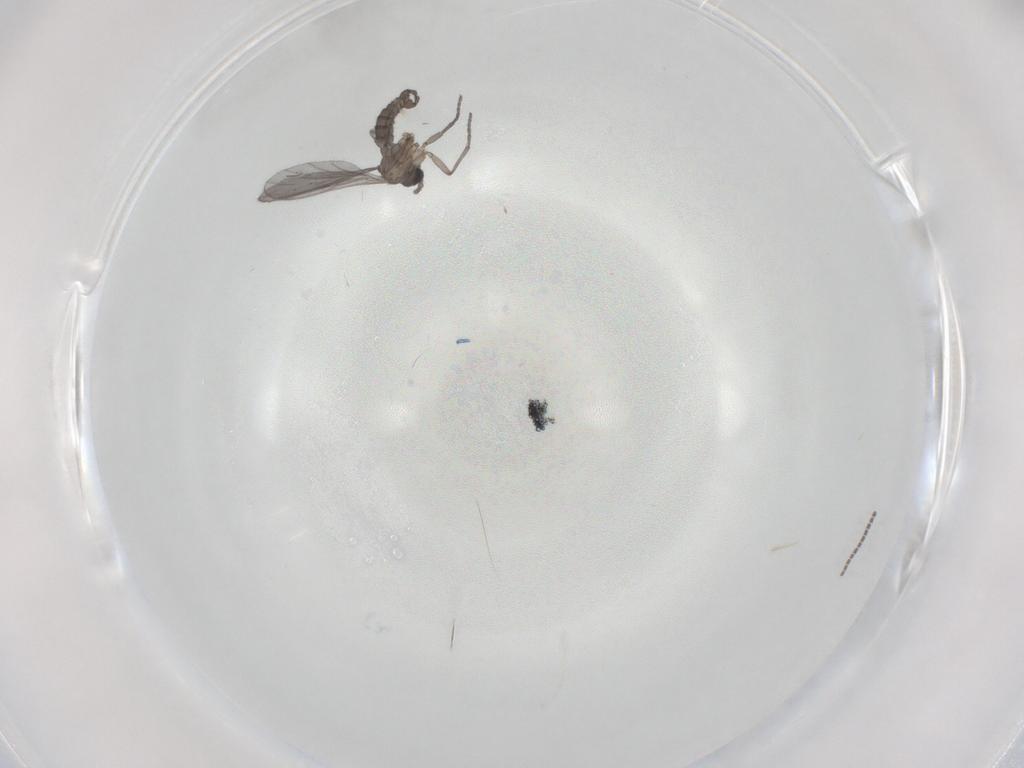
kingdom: Animalia
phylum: Arthropoda
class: Insecta
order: Diptera
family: Sciaridae
